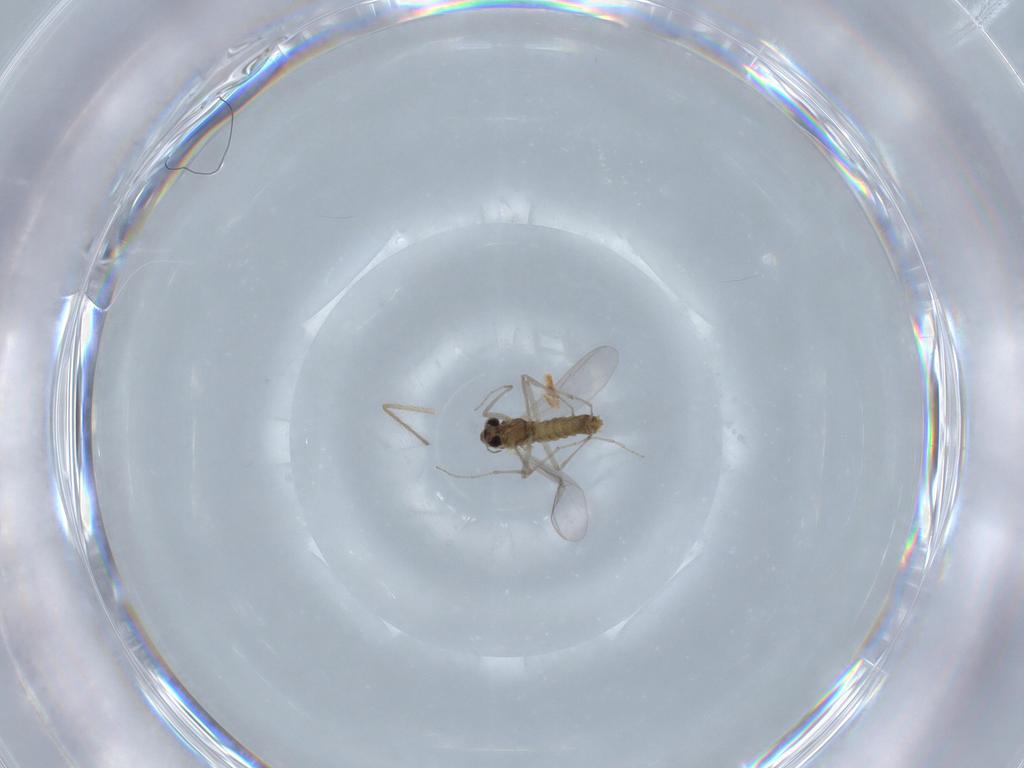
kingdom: Animalia
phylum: Arthropoda
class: Insecta
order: Diptera
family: Chironomidae
